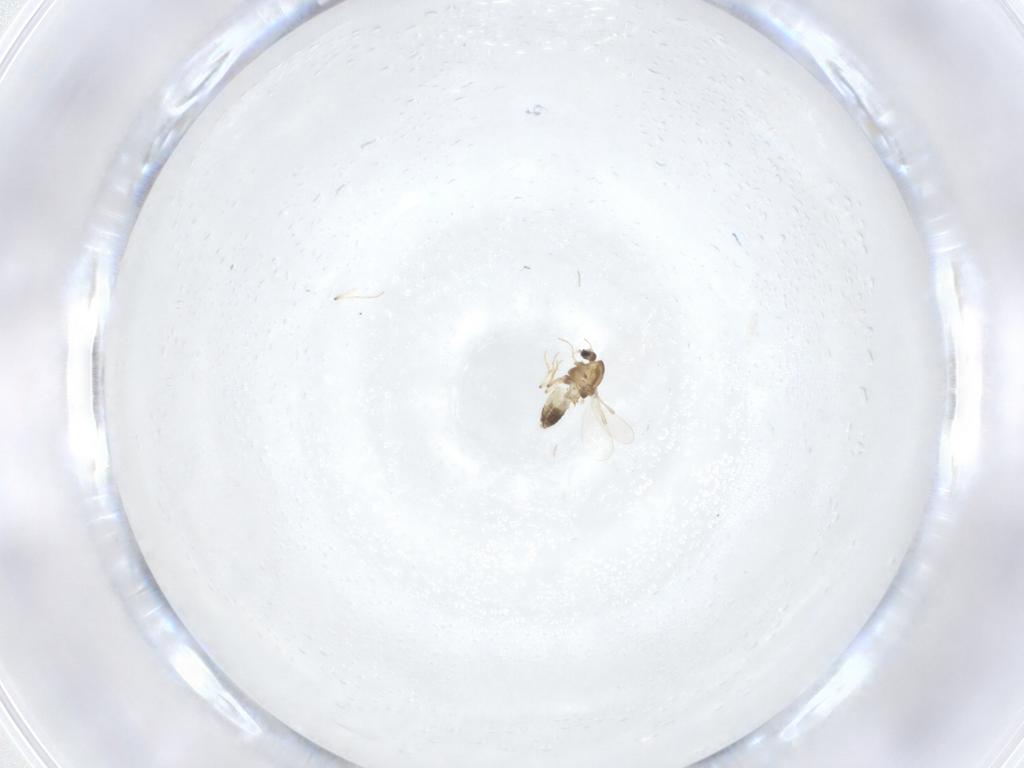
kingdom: Animalia
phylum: Arthropoda
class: Insecta
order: Diptera
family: Chironomidae
